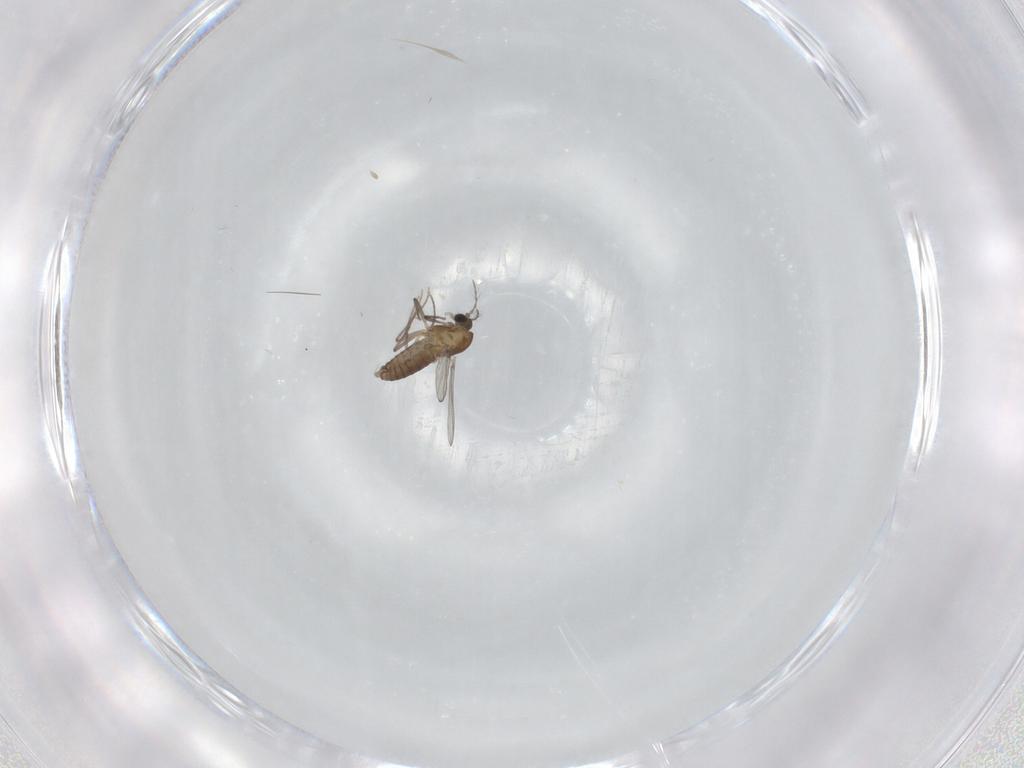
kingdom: Animalia
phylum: Arthropoda
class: Insecta
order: Diptera
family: Chironomidae
